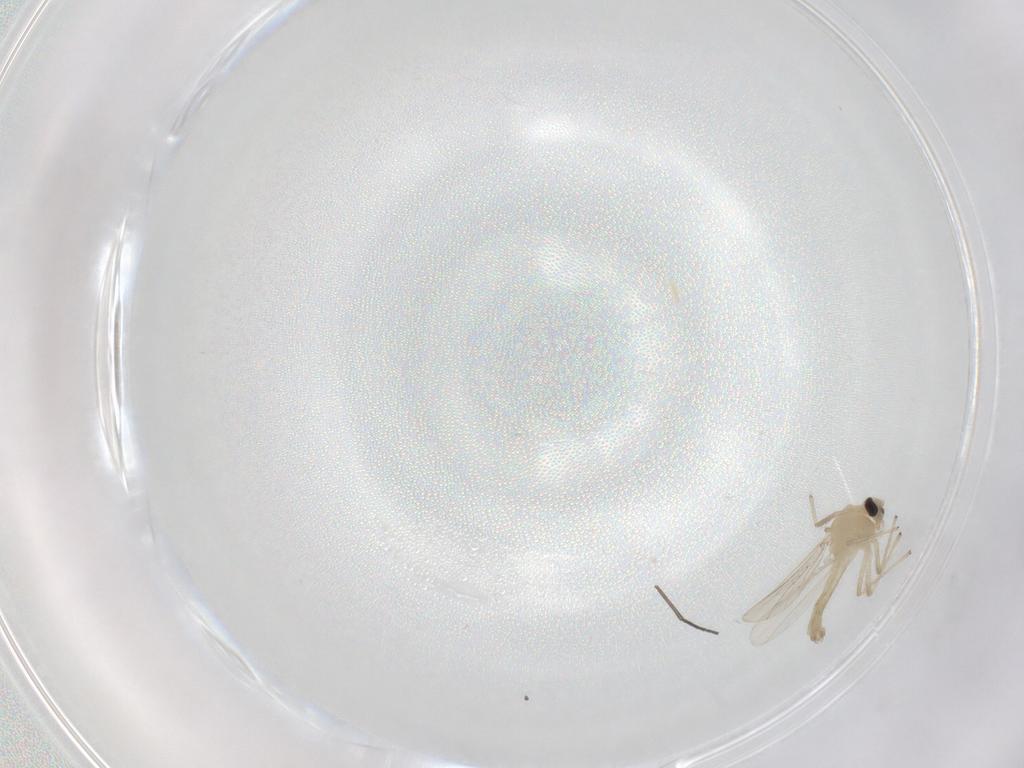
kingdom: Animalia
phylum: Arthropoda
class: Insecta
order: Diptera
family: Chironomidae
